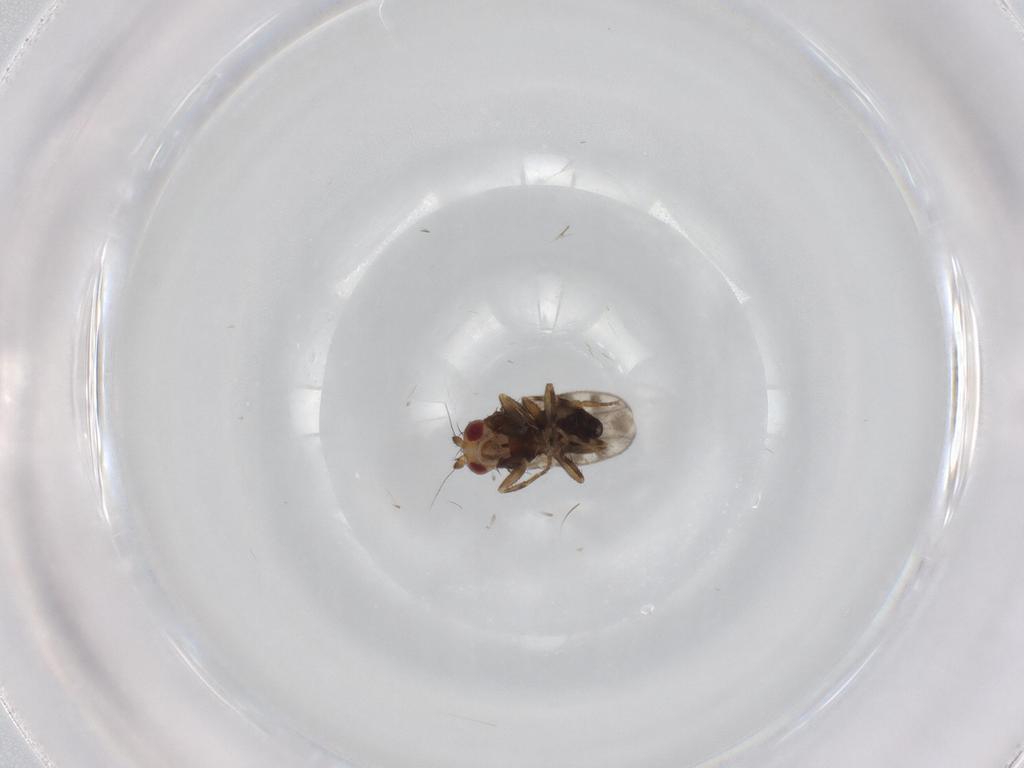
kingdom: Animalia
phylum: Arthropoda
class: Insecta
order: Diptera
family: Sphaeroceridae
